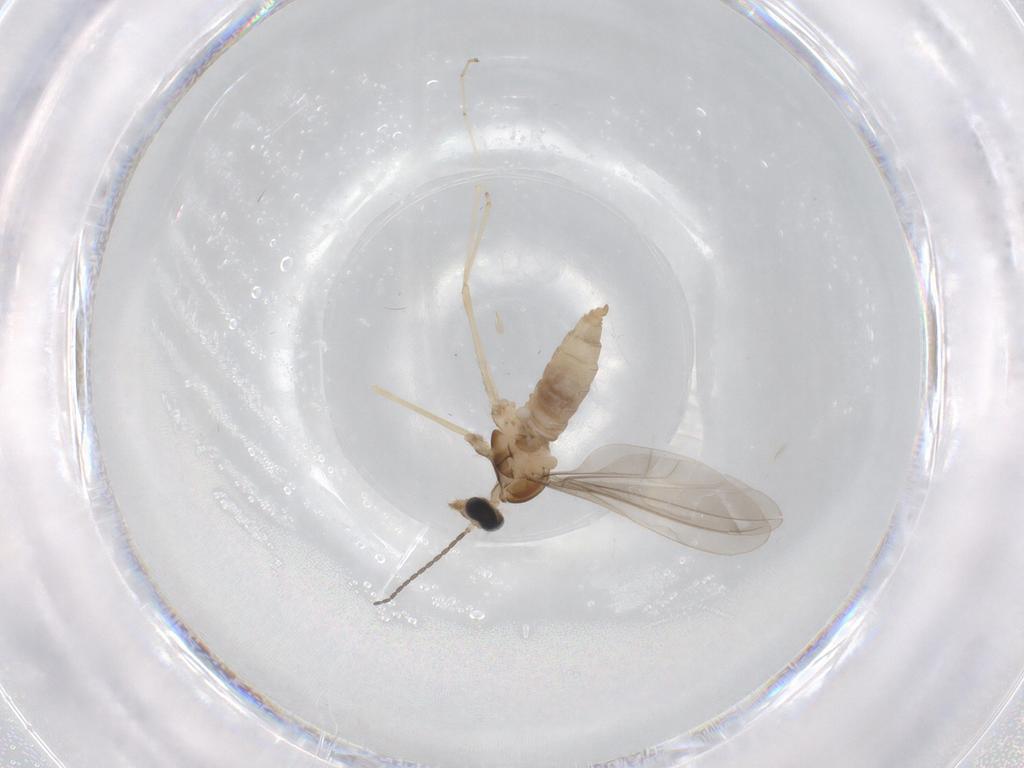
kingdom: Animalia
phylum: Arthropoda
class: Insecta
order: Diptera
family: Cecidomyiidae
